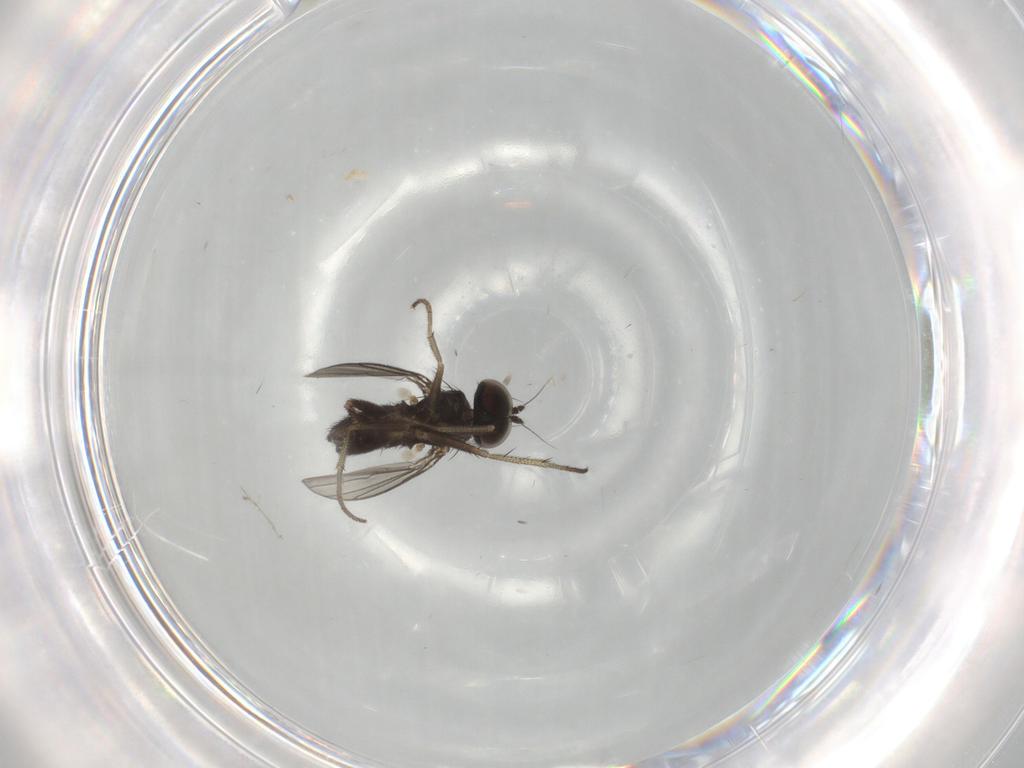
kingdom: Animalia
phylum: Arthropoda
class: Insecta
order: Diptera
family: Dolichopodidae
